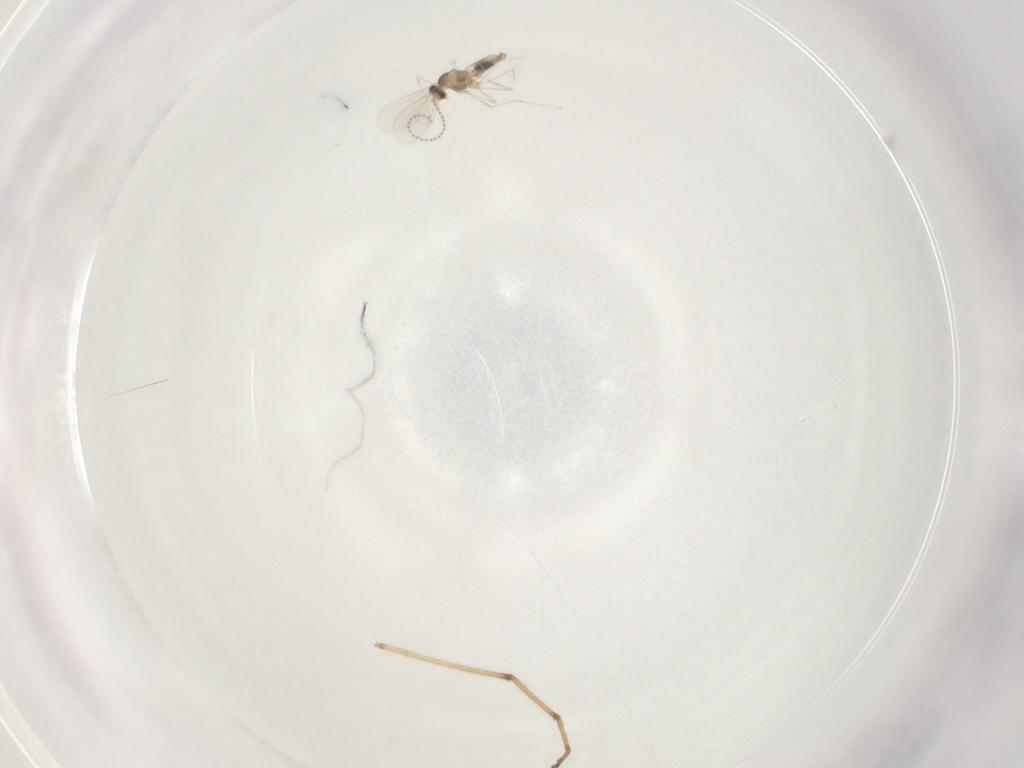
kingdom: Animalia
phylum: Arthropoda
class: Insecta
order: Diptera
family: Cecidomyiidae
